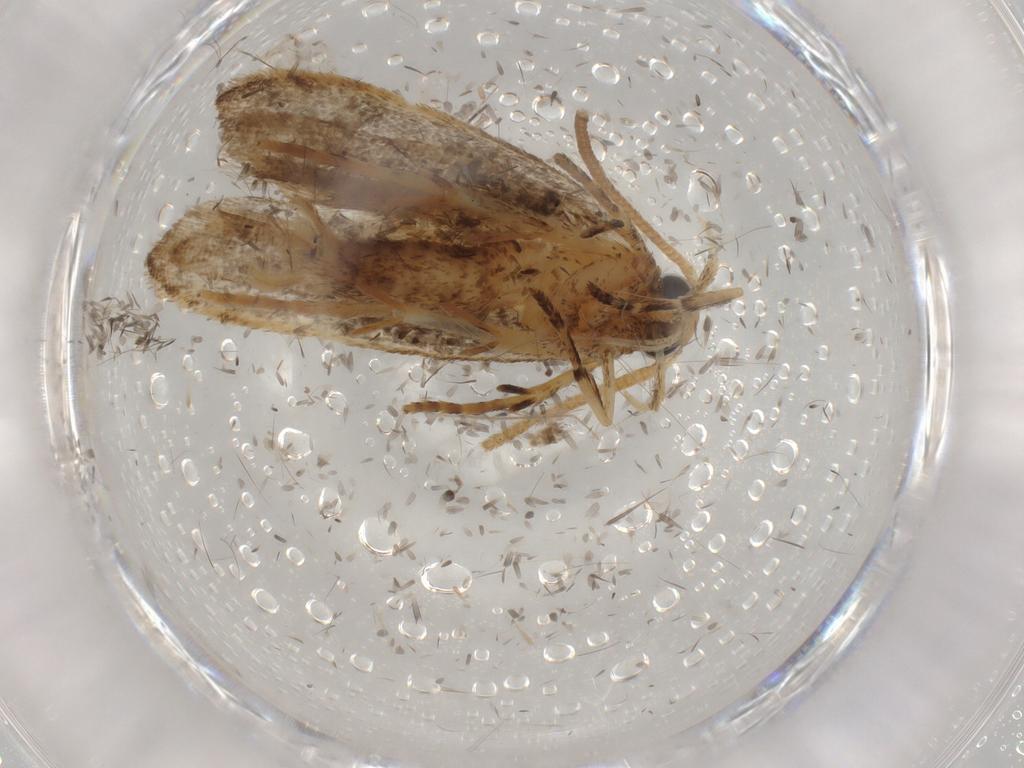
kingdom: Animalia
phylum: Arthropoda
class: Insecta
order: Lepidoptera
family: Autostichidae
